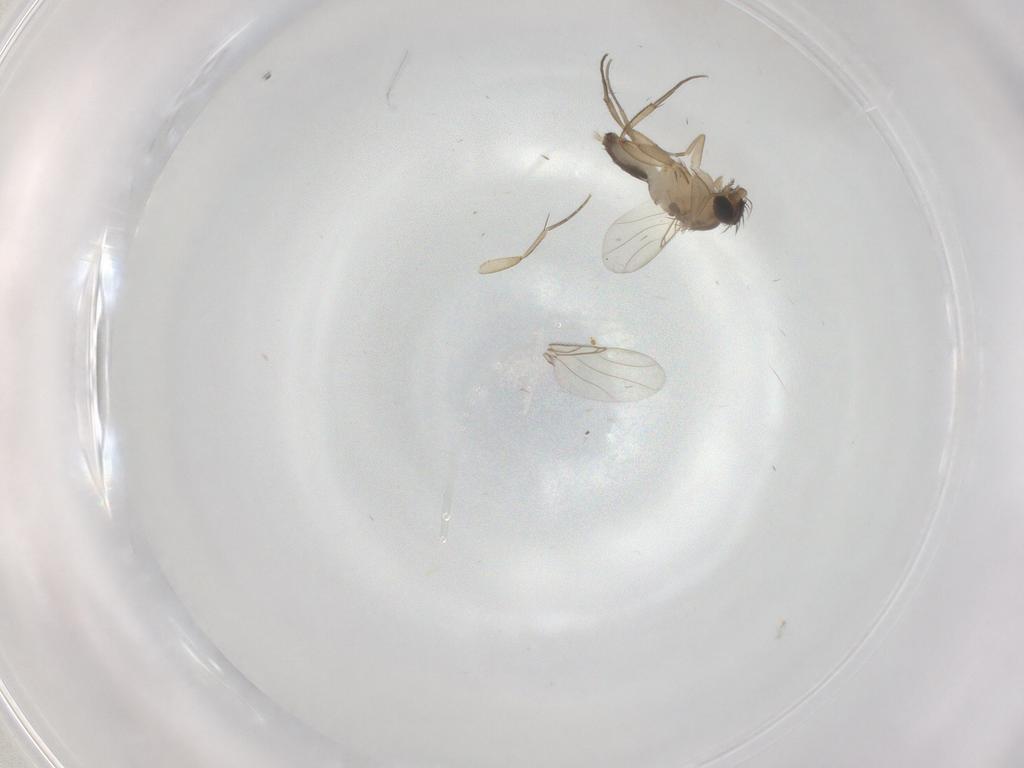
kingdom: Animalia
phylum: Arthropoda
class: Insecta
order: Diptera
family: Phoridae
